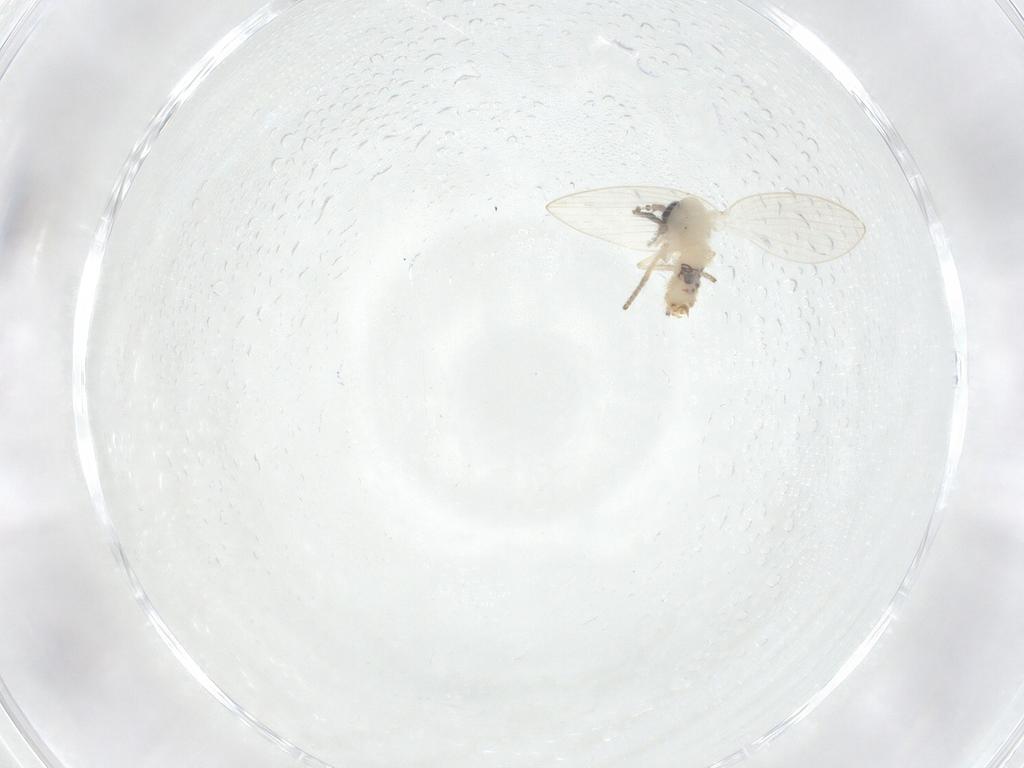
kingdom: Animalia
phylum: Arthropoda
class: Insecta
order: Diptera
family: Psychodidae
